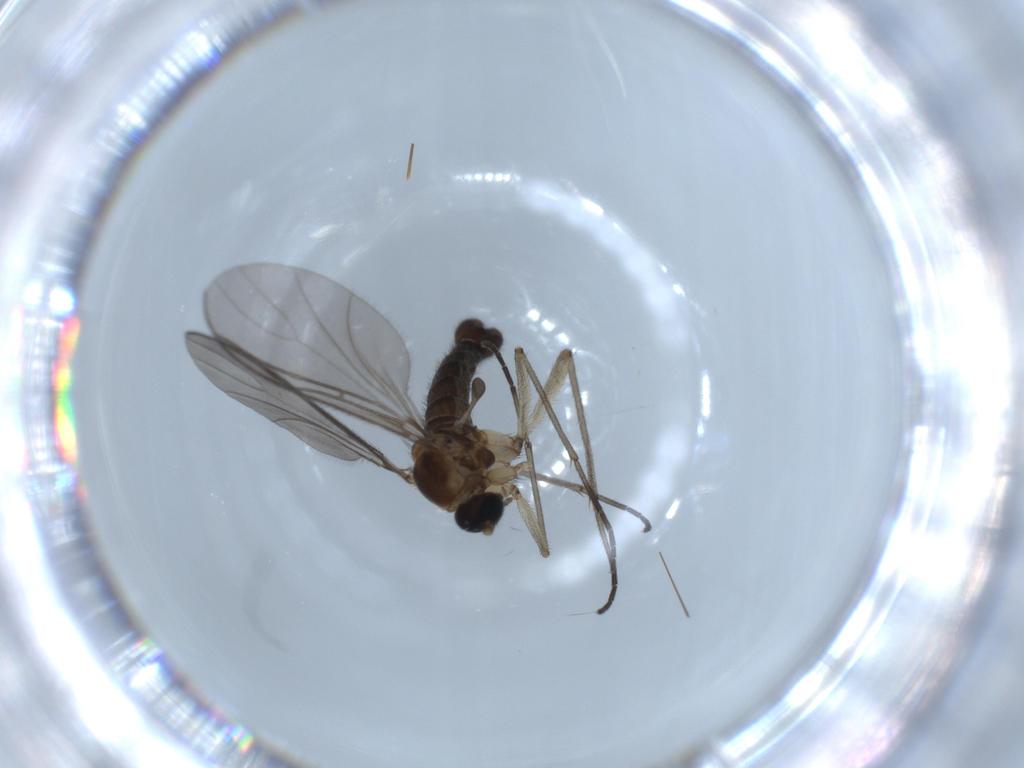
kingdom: Animalia
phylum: Arthropoda
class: Insecta
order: Diptera
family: Sciaridae
